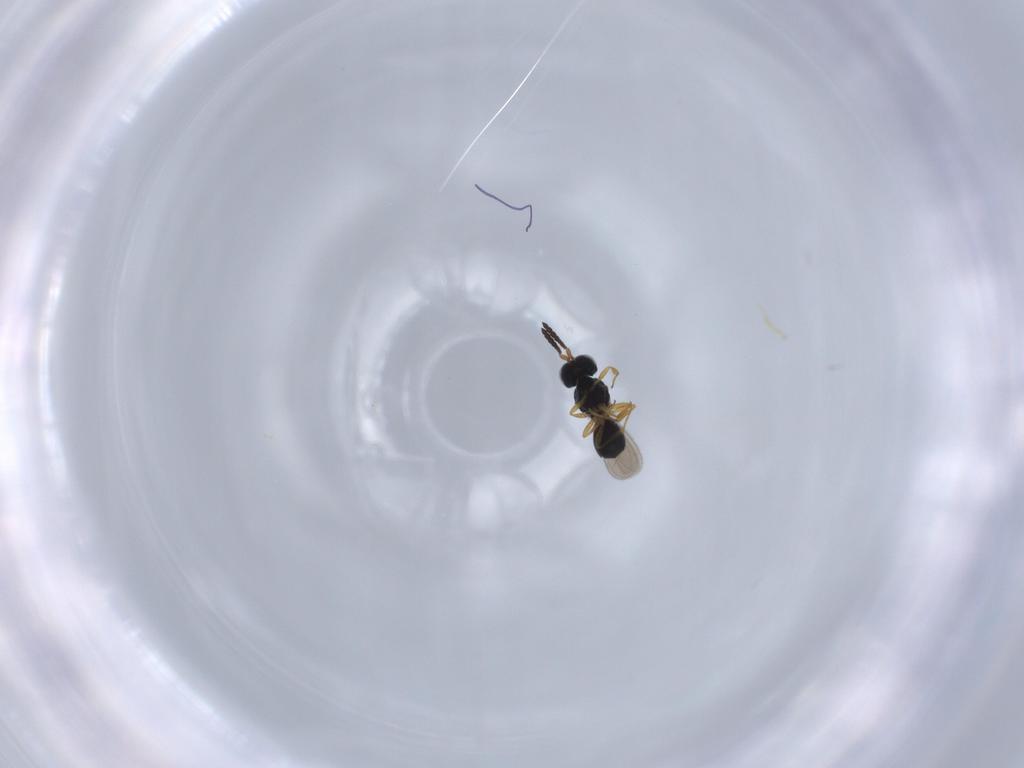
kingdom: Animalia
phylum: Arthropoda
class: Insecta
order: Hymenoptera
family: Scelionidae
